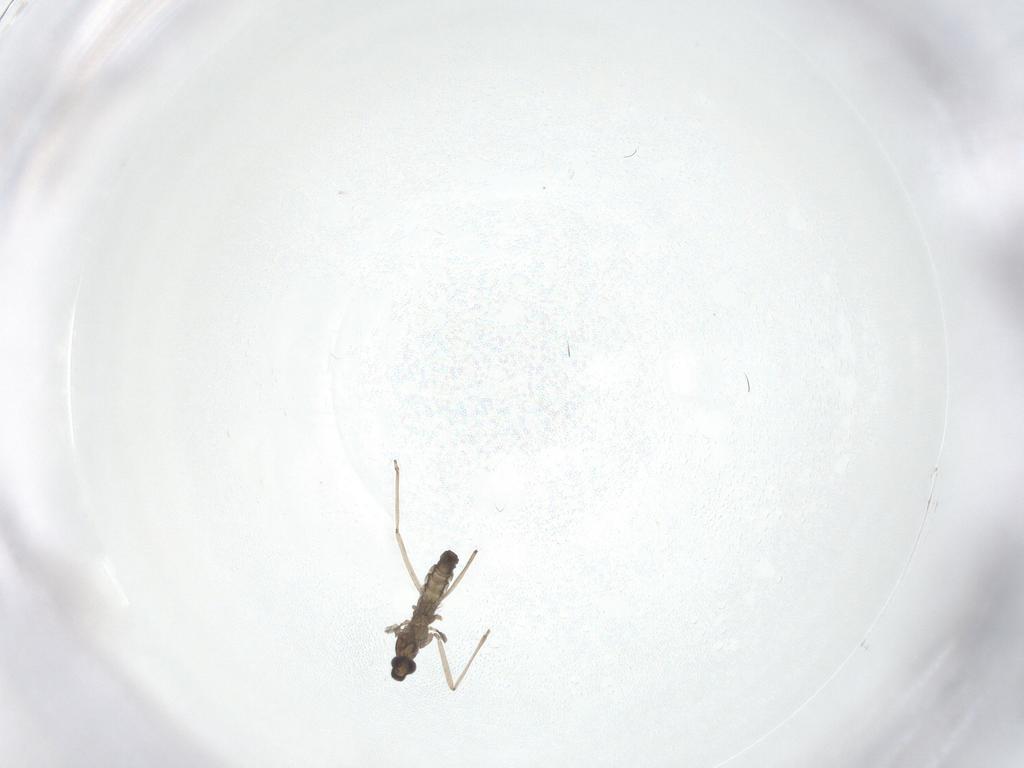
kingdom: Animalia
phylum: Arthropoda
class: Insecta
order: Diptera
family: Cecidomyiidae
